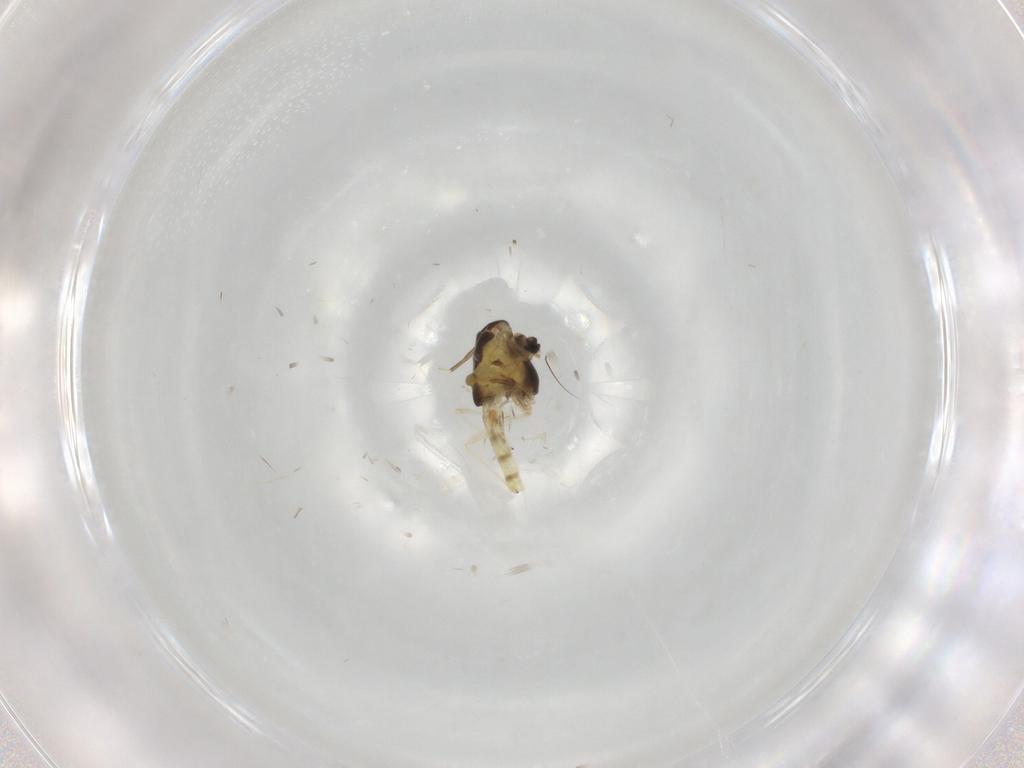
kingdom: Animalia
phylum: Arthropoda
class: Insecta
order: Diptera
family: Chironomidae
